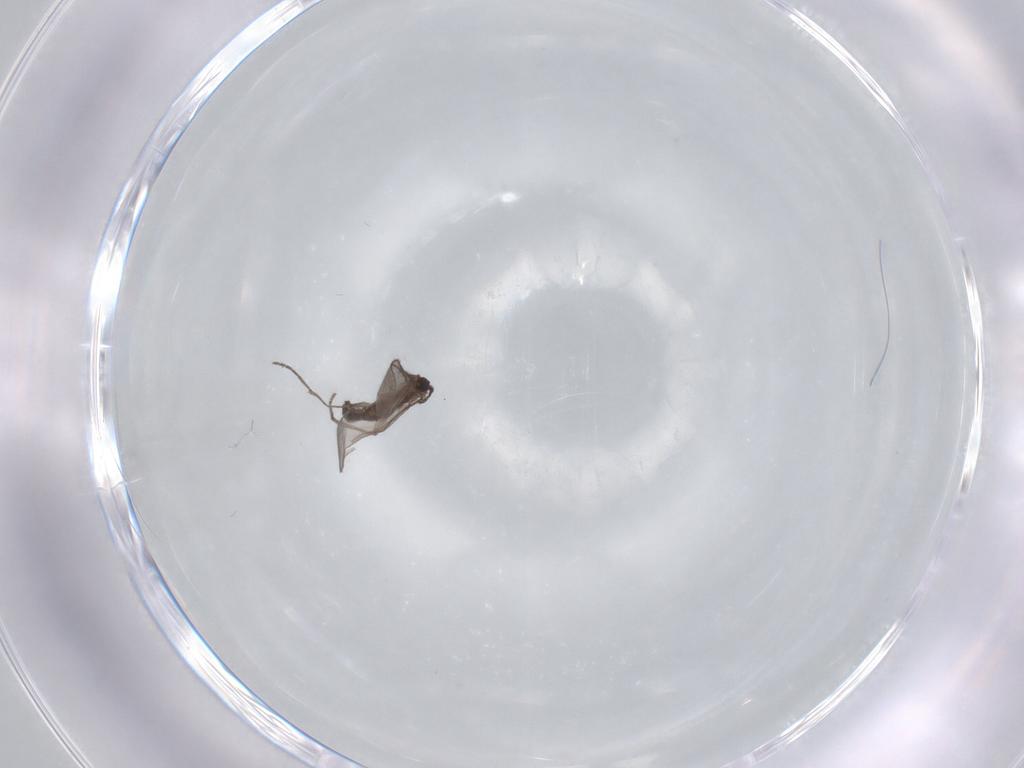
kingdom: Animalia
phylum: Arthropoda
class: Insecta
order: Diptera
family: Sciaridae
